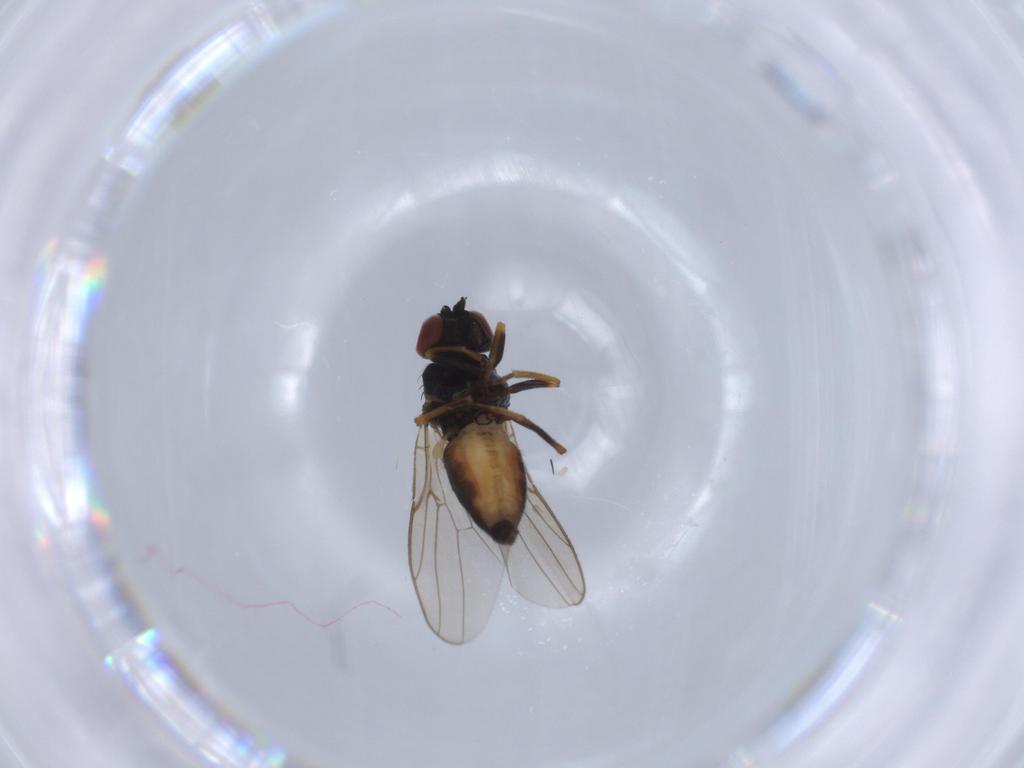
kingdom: Animalia
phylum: Arthropoda
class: Insecta
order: Diptera
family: Chloropidae
